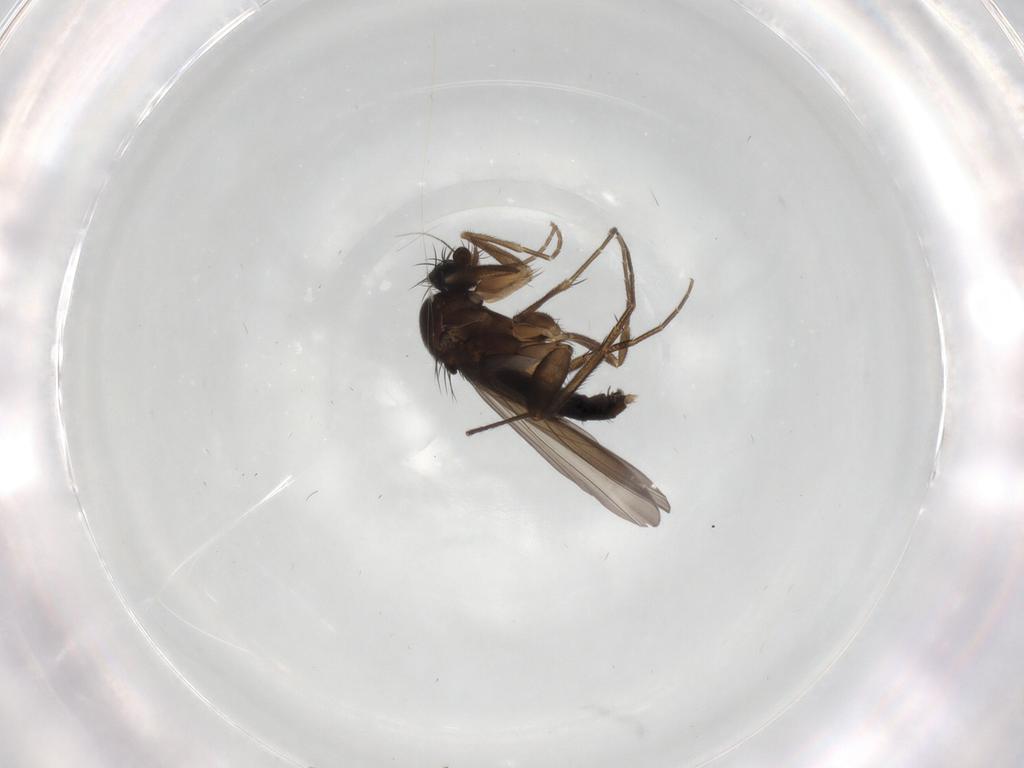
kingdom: Animalia
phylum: Arthropoda
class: Insecta
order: Diptera
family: Phoridae
